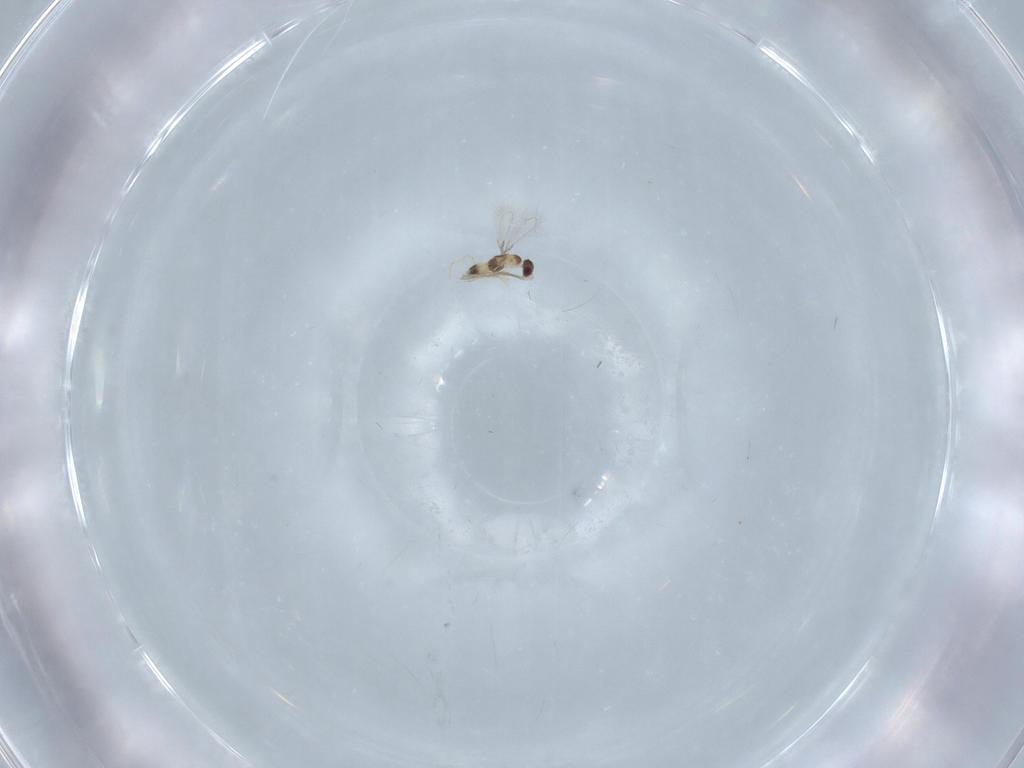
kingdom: Animalia
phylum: Arthropoda
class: Insecta
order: Hymenoptera
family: Mymaridae
